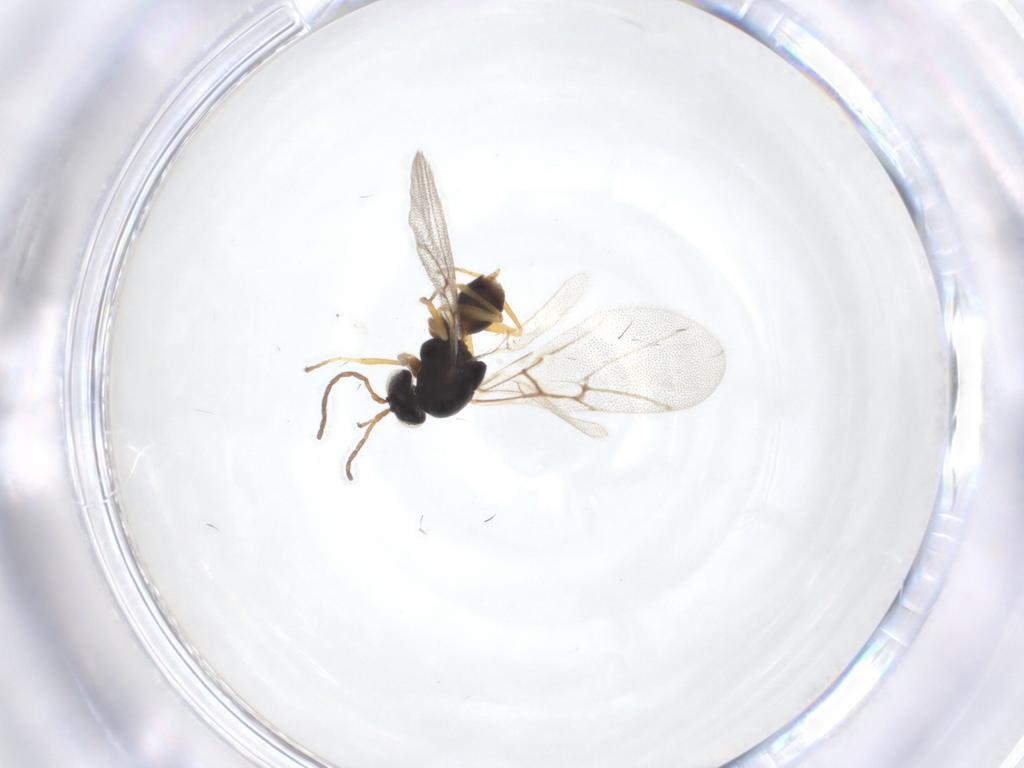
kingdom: Animalia
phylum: Arthropoda
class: Insecta
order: Hymenoptera
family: Cynipidae
